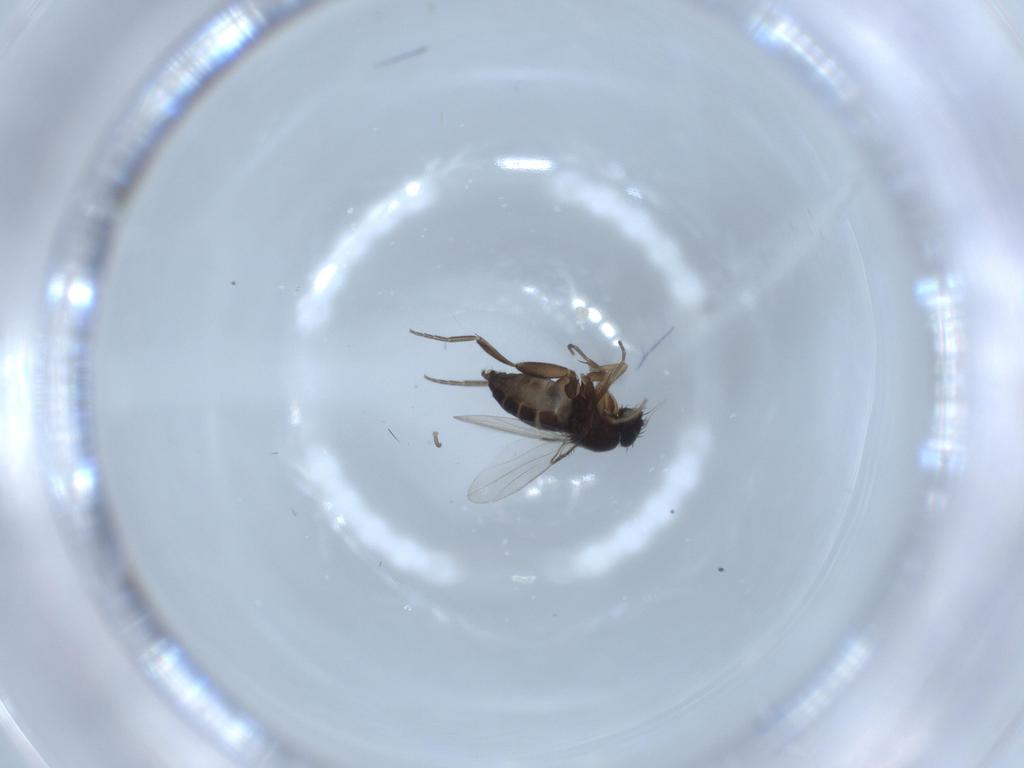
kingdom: Animalia
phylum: Arthropoda
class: Insecta
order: Diptera
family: Phoridae
